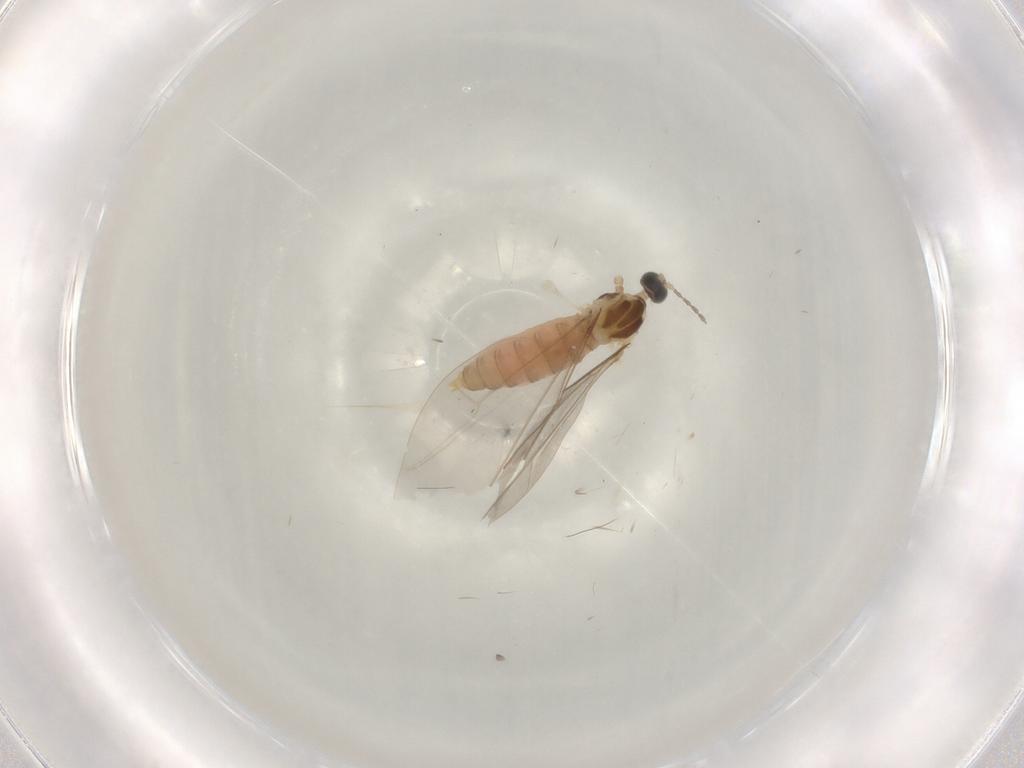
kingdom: Animalia
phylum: Arthropoda
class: Insecta
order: Diptera
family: Cecidomyiidae
